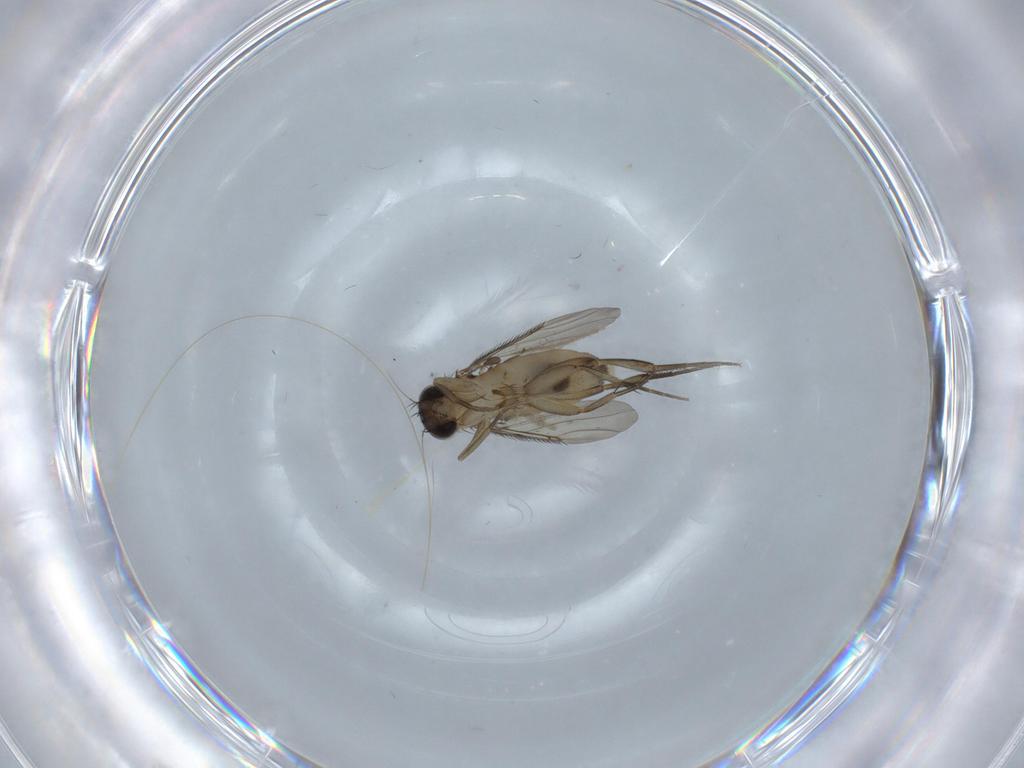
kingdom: Animalia
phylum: Arthropoda
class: Insecta
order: Diptera
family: Phoridae
